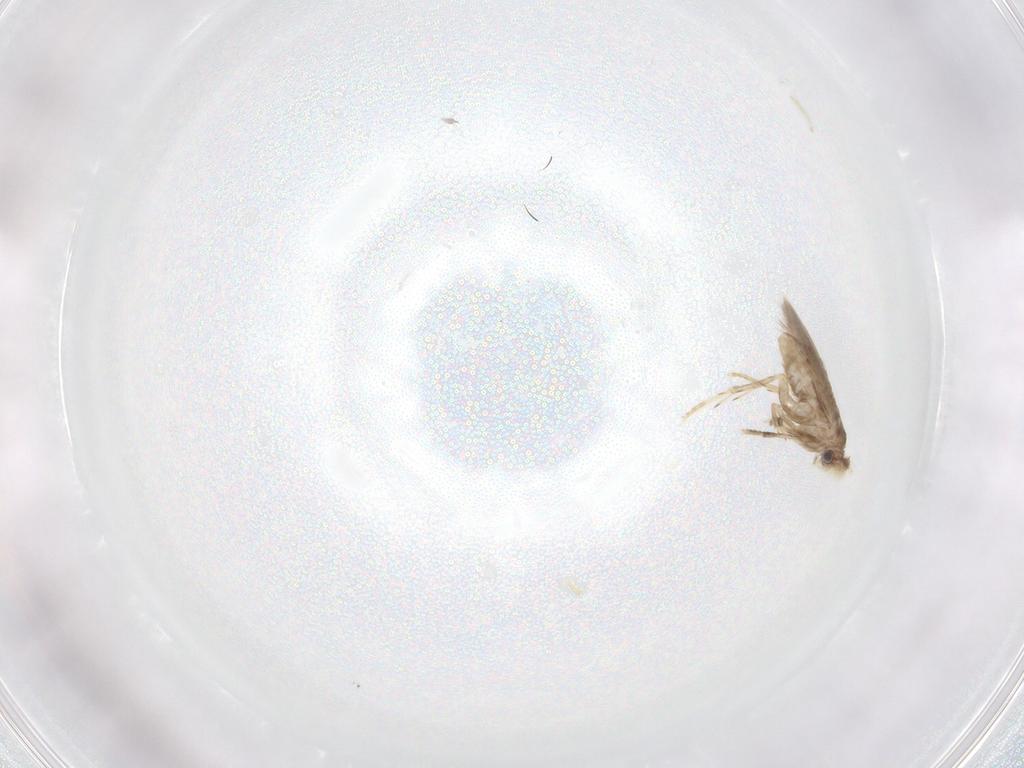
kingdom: Animalia
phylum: Arthropoda
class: Insecta
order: Lepidoptera
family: Nepticulidae
